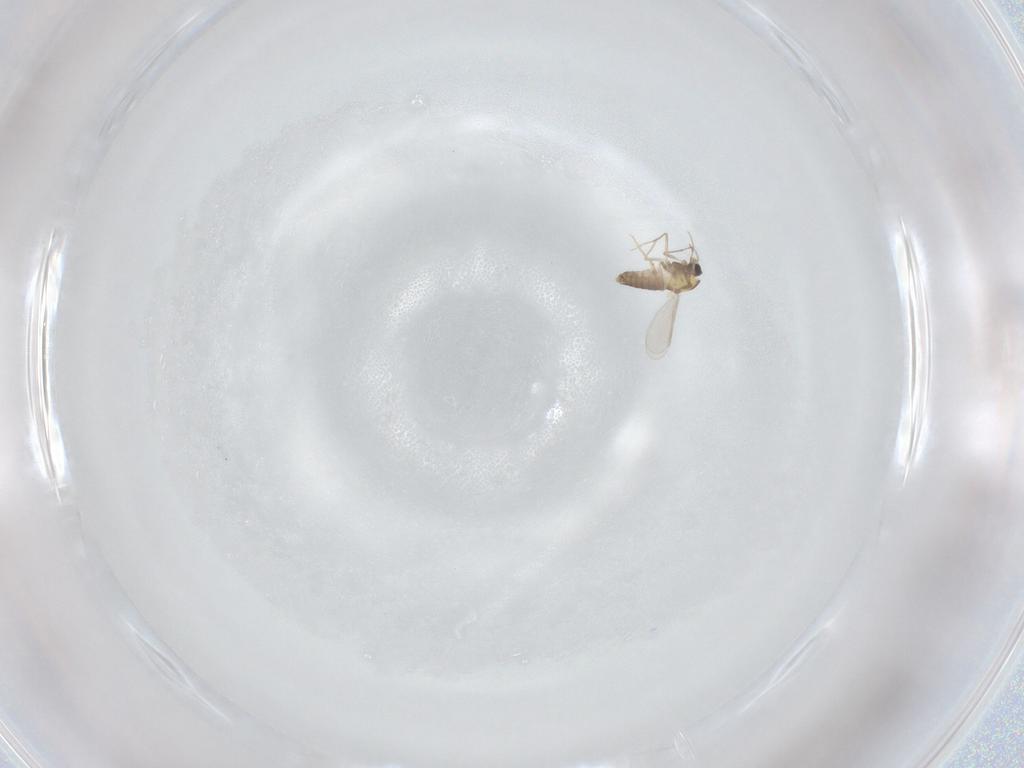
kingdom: Animalia
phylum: Arthropoda
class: Insecta
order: Diptera
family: Chironomidae
